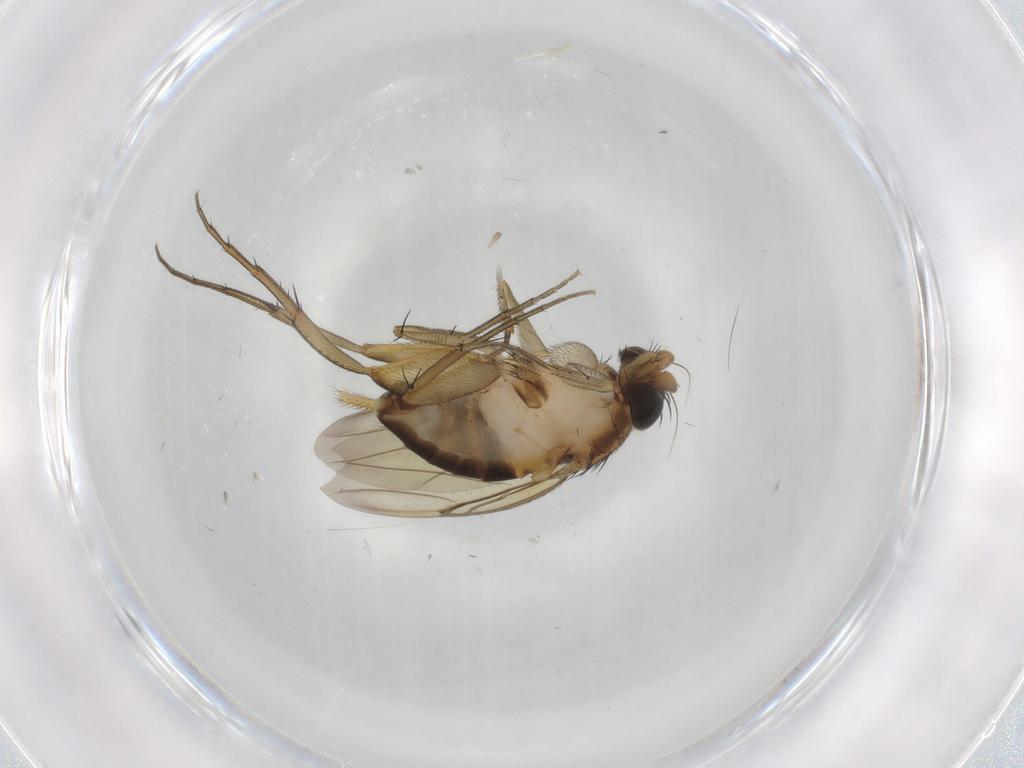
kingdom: Animalia
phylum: Arthropoda
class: Insecta
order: Diptera
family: Phoridae
